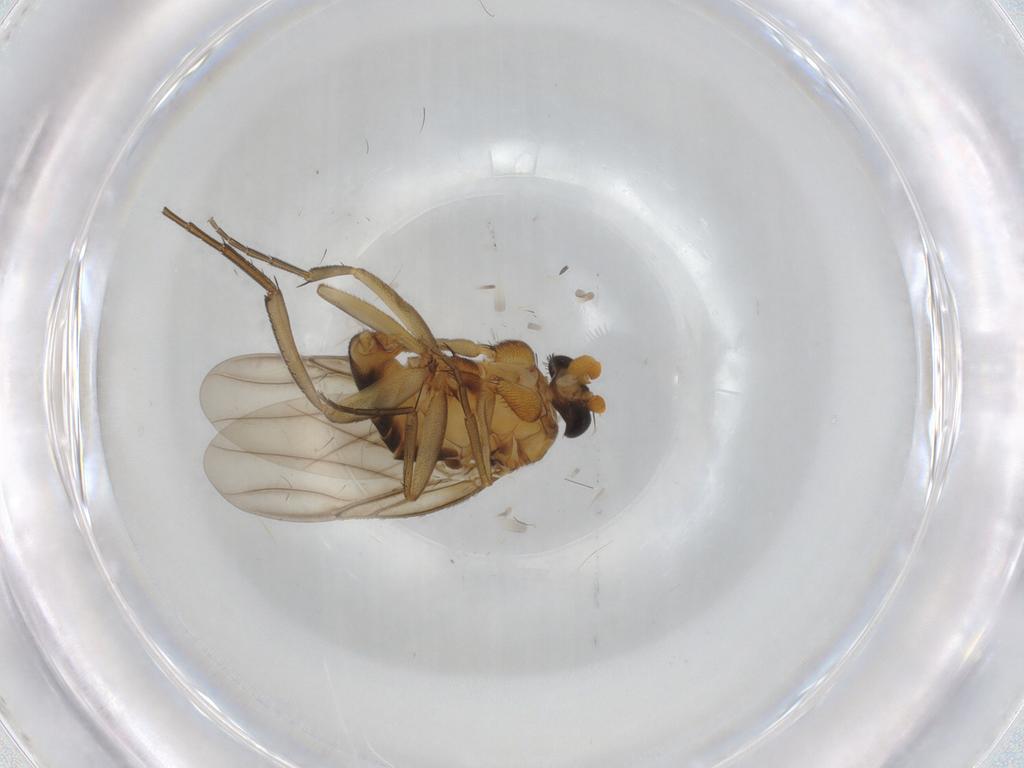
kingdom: Animalia
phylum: Arthropoda
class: Insecta
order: Diptera
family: Cecidomyiidae
